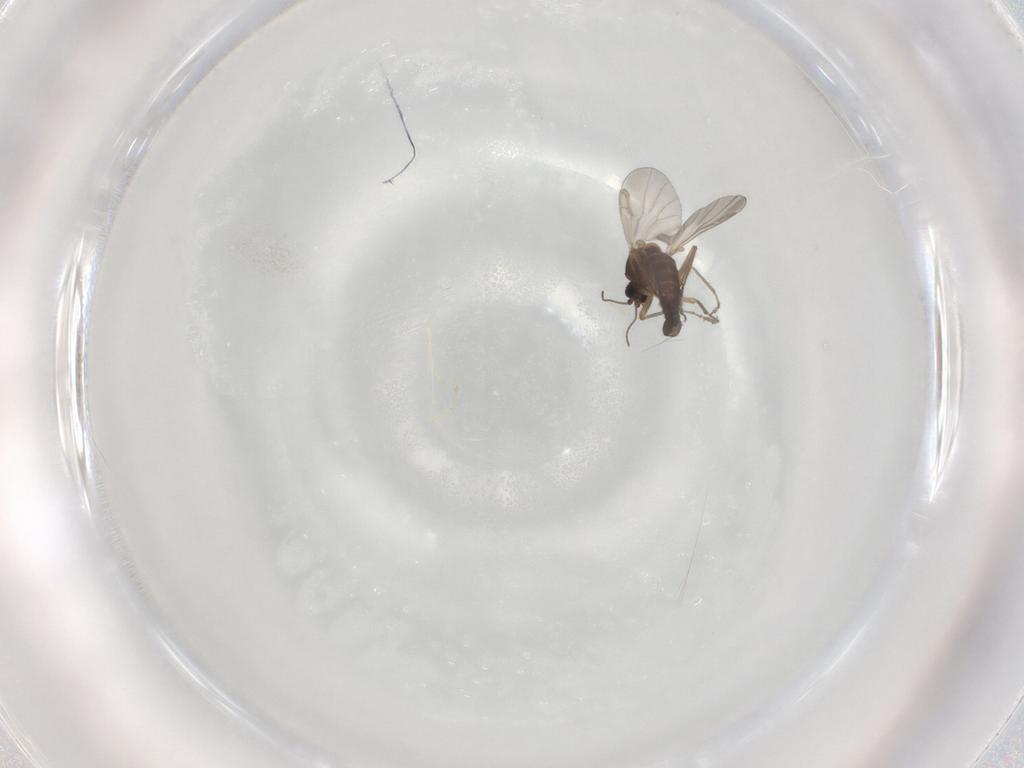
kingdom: Animalia
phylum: Arthropoda
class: Insecta
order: Diptera
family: Ceratopogonidae
